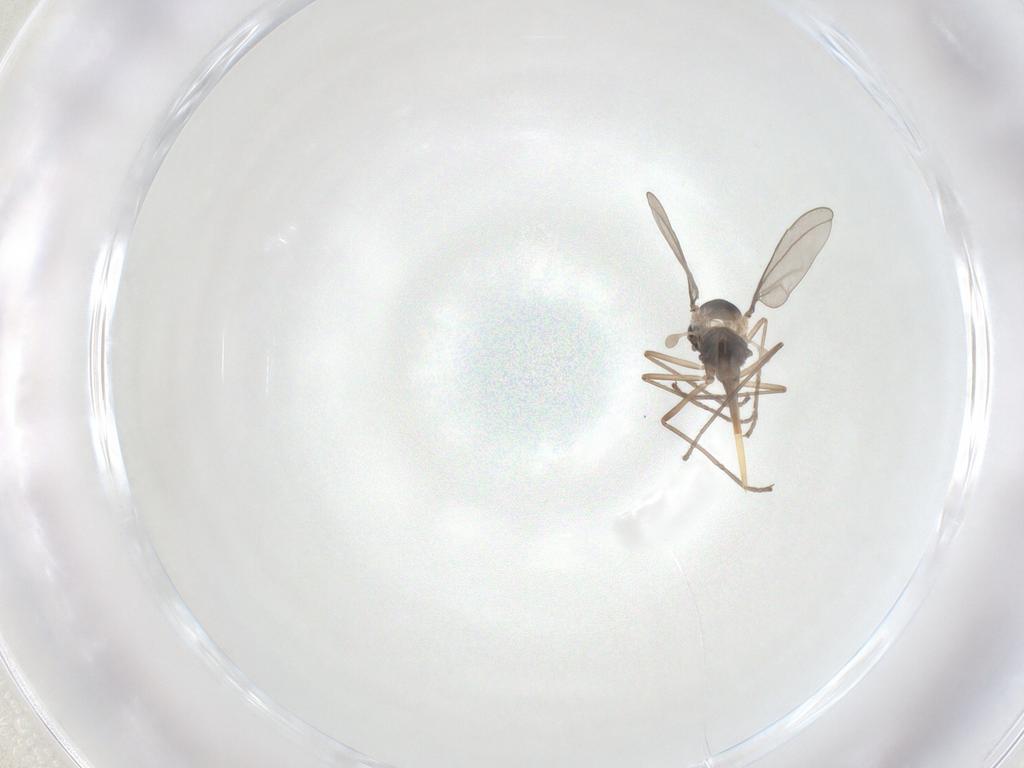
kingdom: Animalia
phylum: Arthropoda
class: Insecta
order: Diptera
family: Cecidomyiidae
